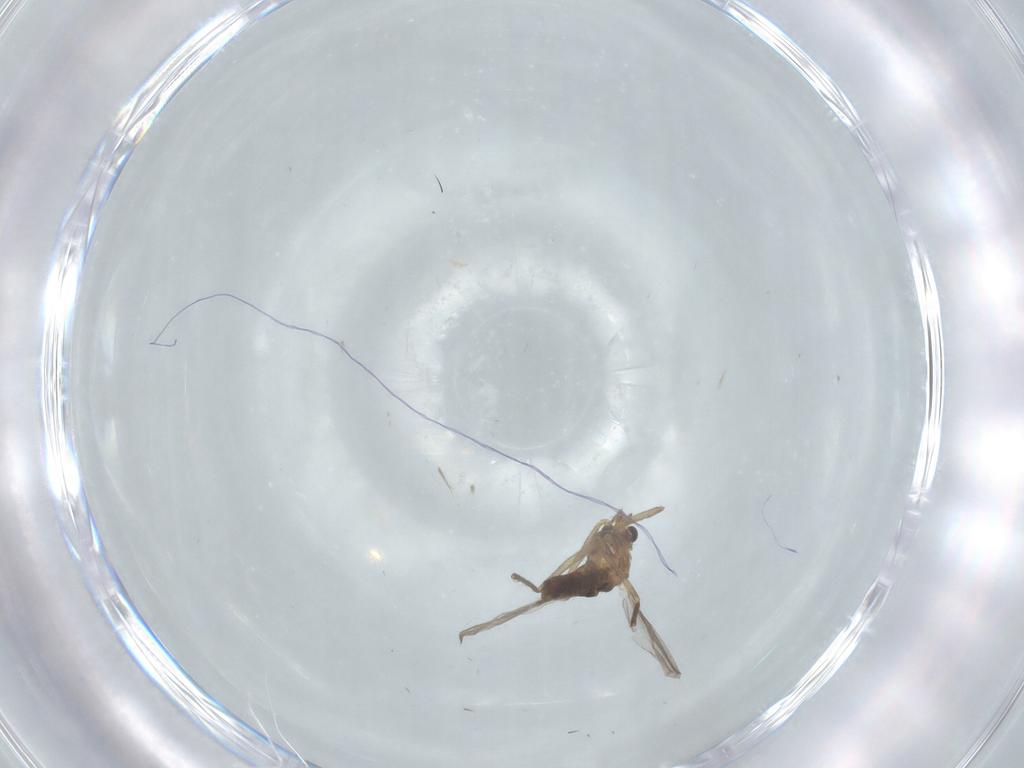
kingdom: Animalia
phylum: Arthropoda
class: Insecta
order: Diptera
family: Chironomidae
